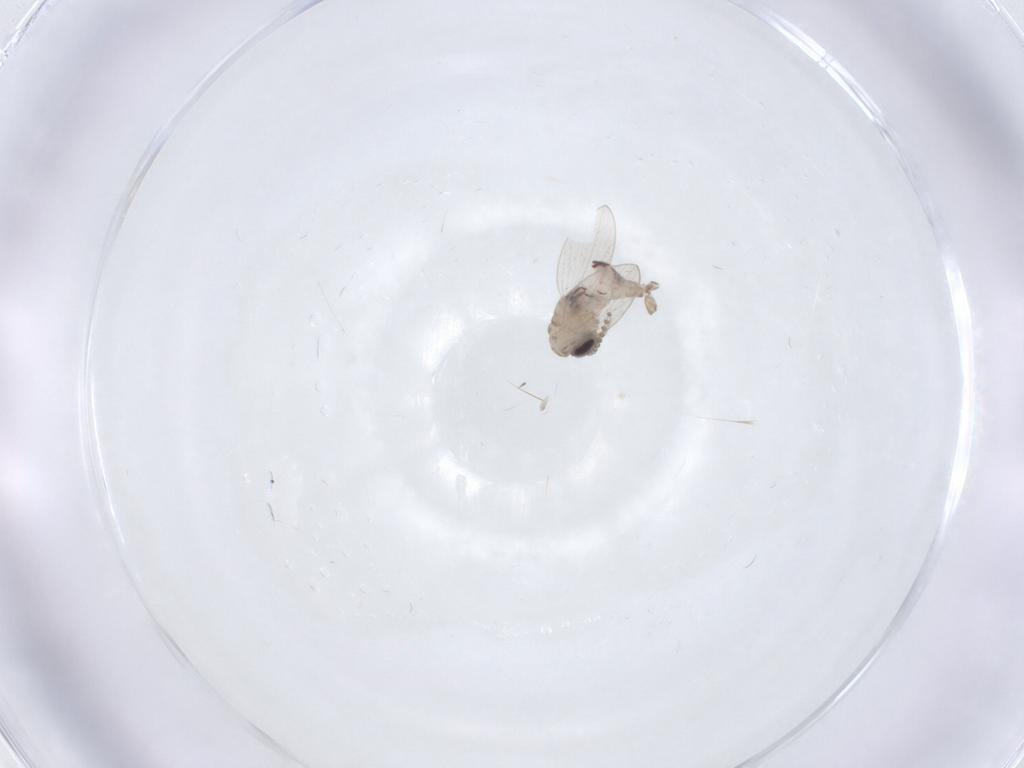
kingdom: Animalia
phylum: Arthropoda
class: Insecta
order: Diptera
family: Psychodidae
